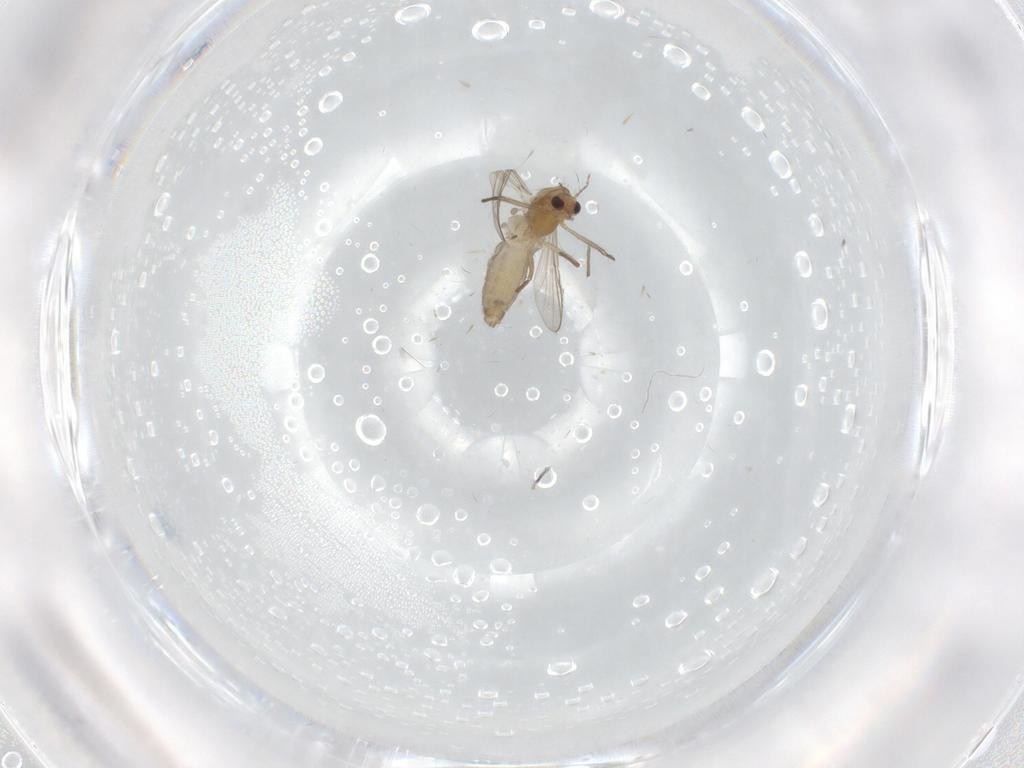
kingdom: Animalia
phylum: Arthropoda
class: Insecta
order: Diptera
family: Chironomidae
